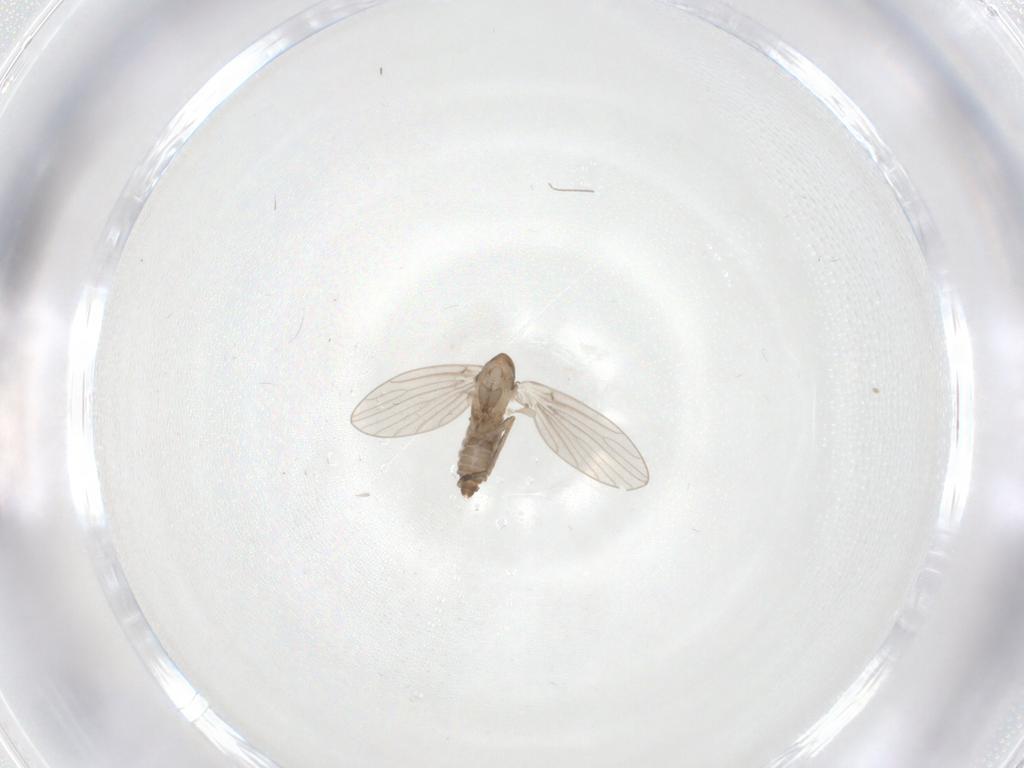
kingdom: Animalia
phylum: Arthropoda
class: Insecta
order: Diptera
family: Psychodidae
